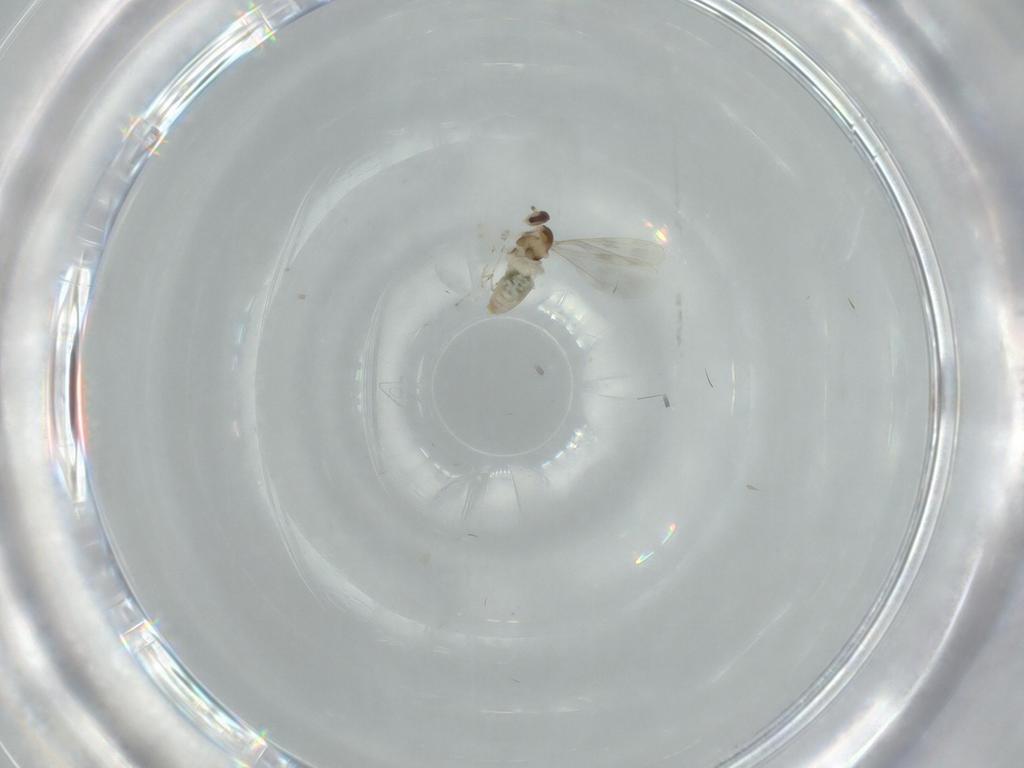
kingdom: Animalia
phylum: Arthropoda
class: Insecta
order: Diptera
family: Cecidomyiidae
